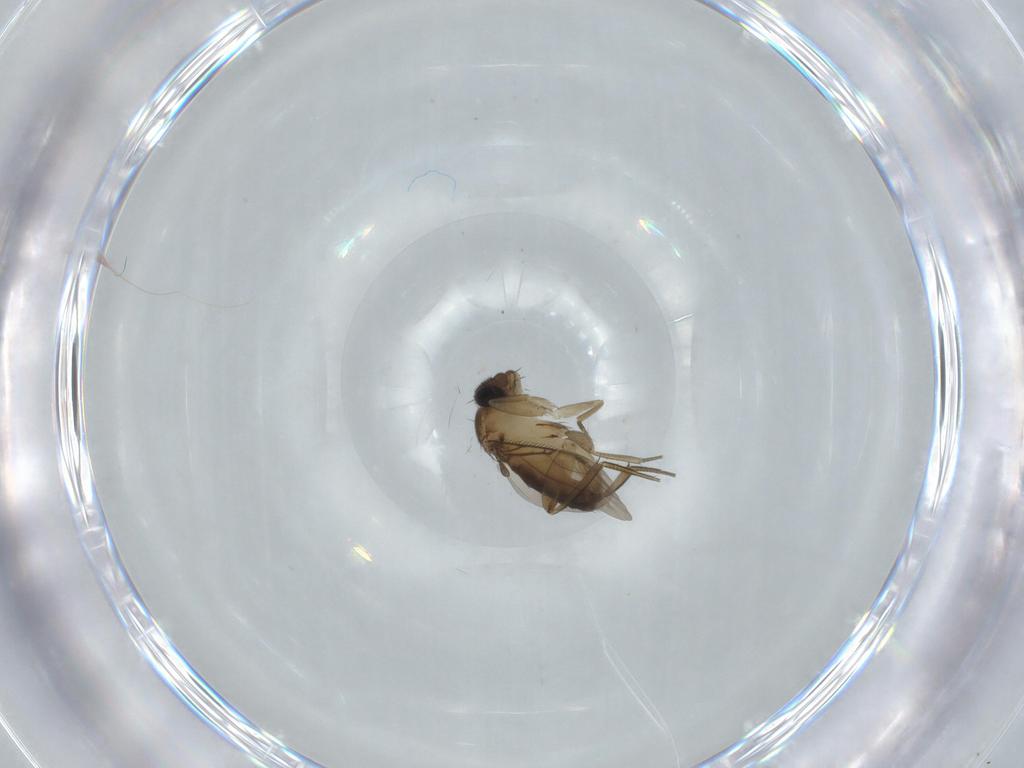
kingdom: Animalia
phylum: Arthropoda
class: Insecta
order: Diptera
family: Phoridae
